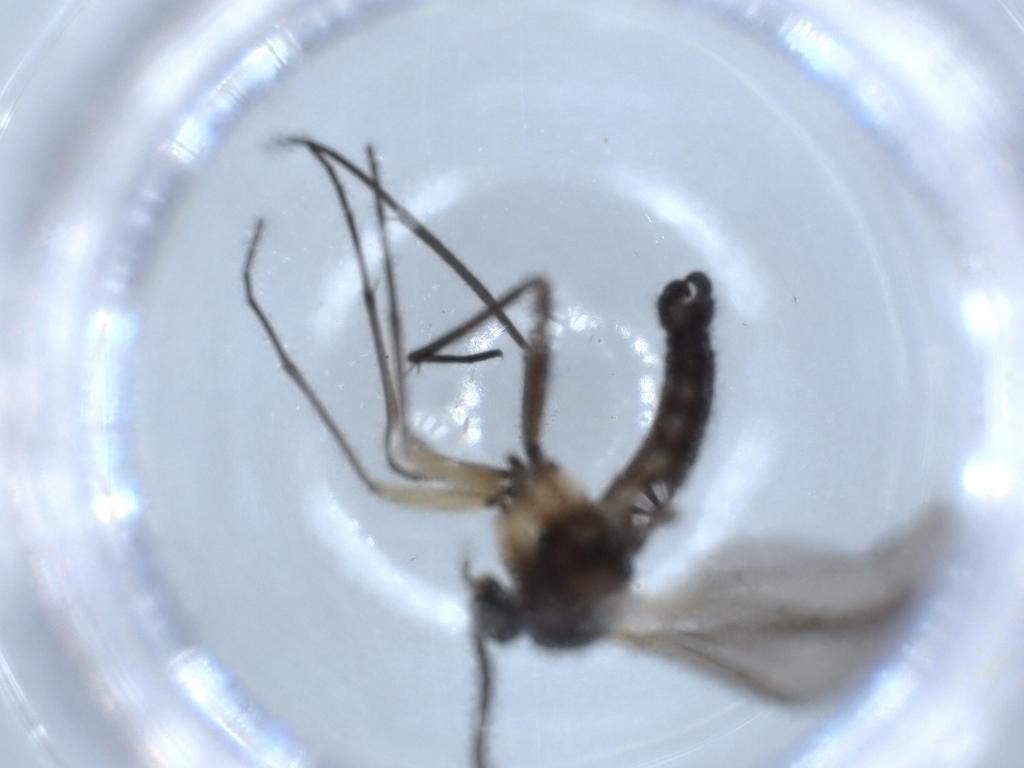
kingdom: Animalia
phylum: Arthropoda
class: Insecta
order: Diptera
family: Sciaridae
